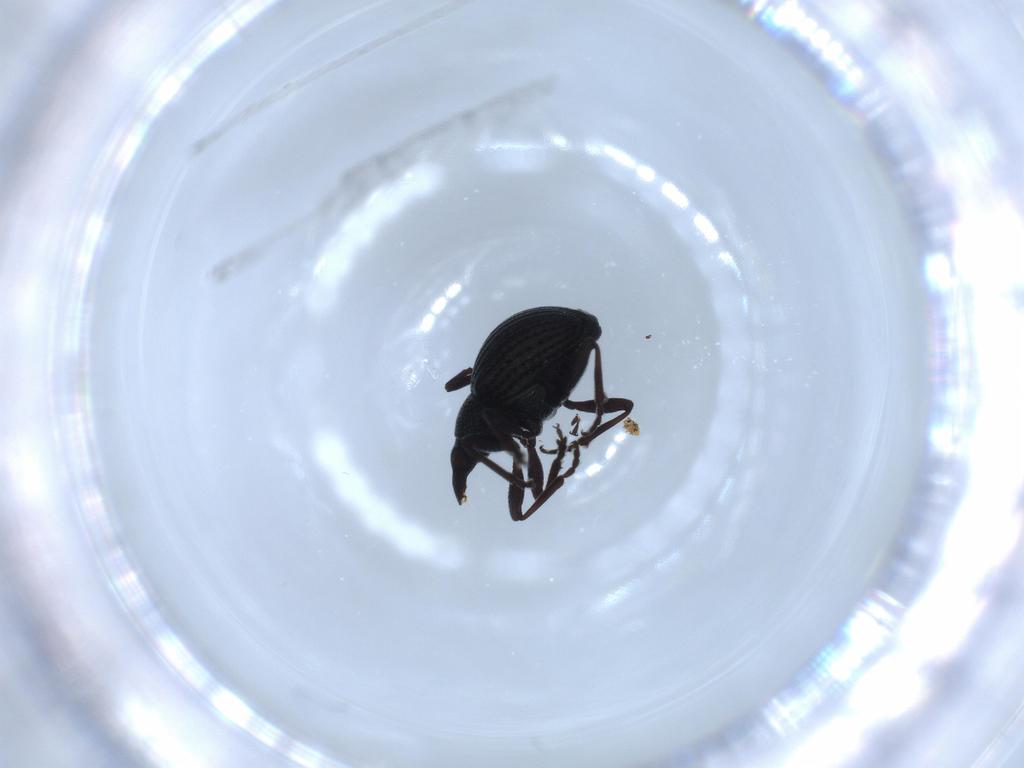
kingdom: Animalia
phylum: Arthropoda
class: Insecta
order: Coleoptera
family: Brentidae
